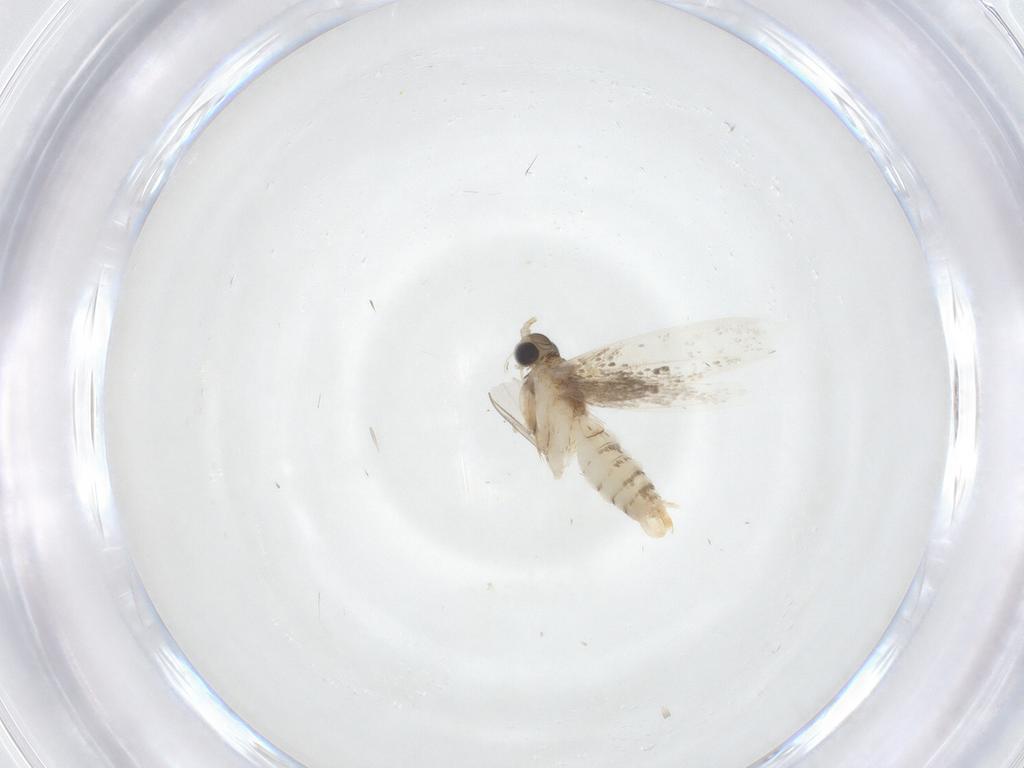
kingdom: Animalia
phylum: Arthropoda
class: Insecta
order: Lepidoptera
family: Dryadaulidae
